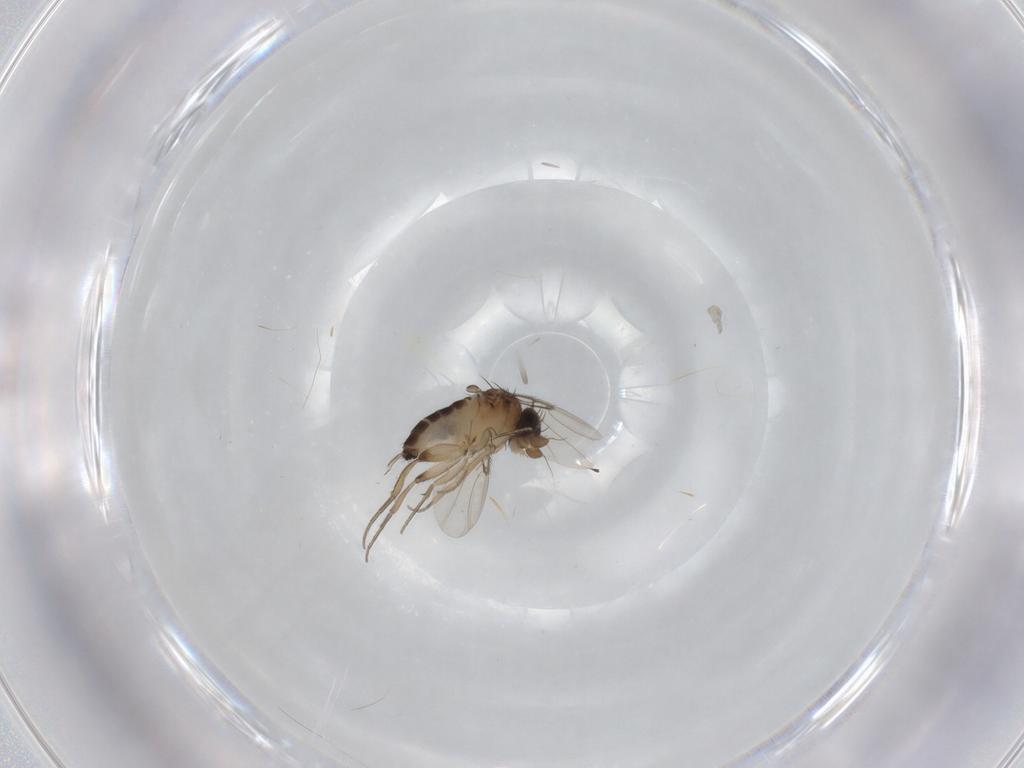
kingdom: Animalia
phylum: Arthropoda
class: Insecta
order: Diptera
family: Phoridae
